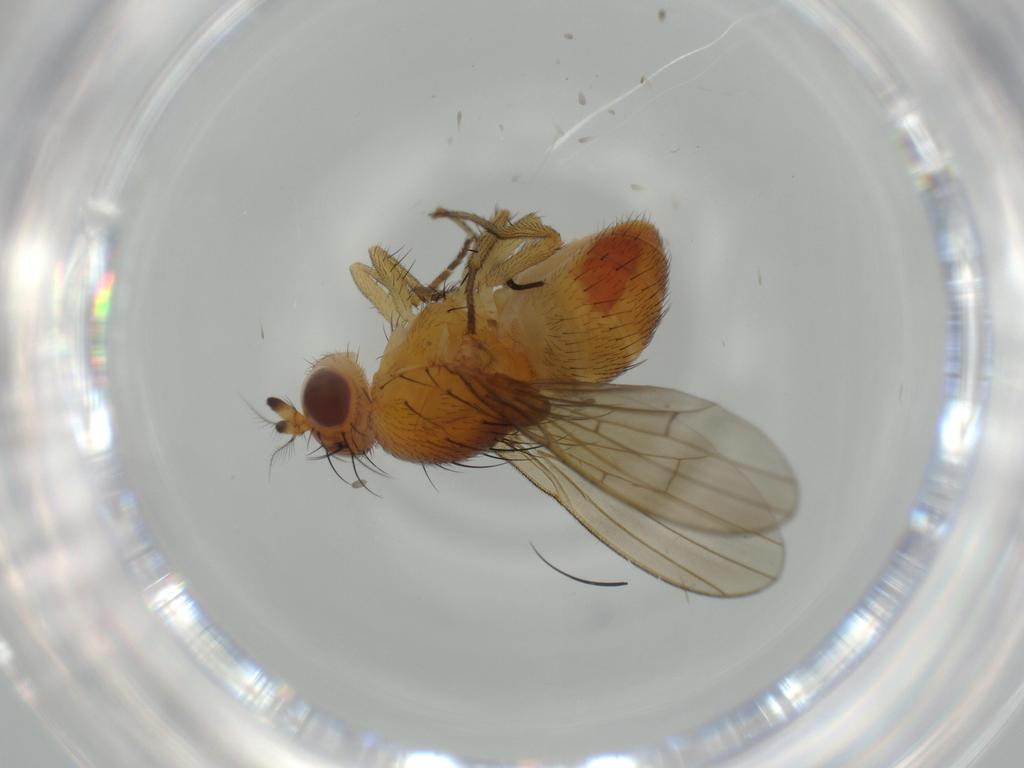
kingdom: Animalia
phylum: Arthropoda
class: Insecta
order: Diptera
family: Lauxaniidae
